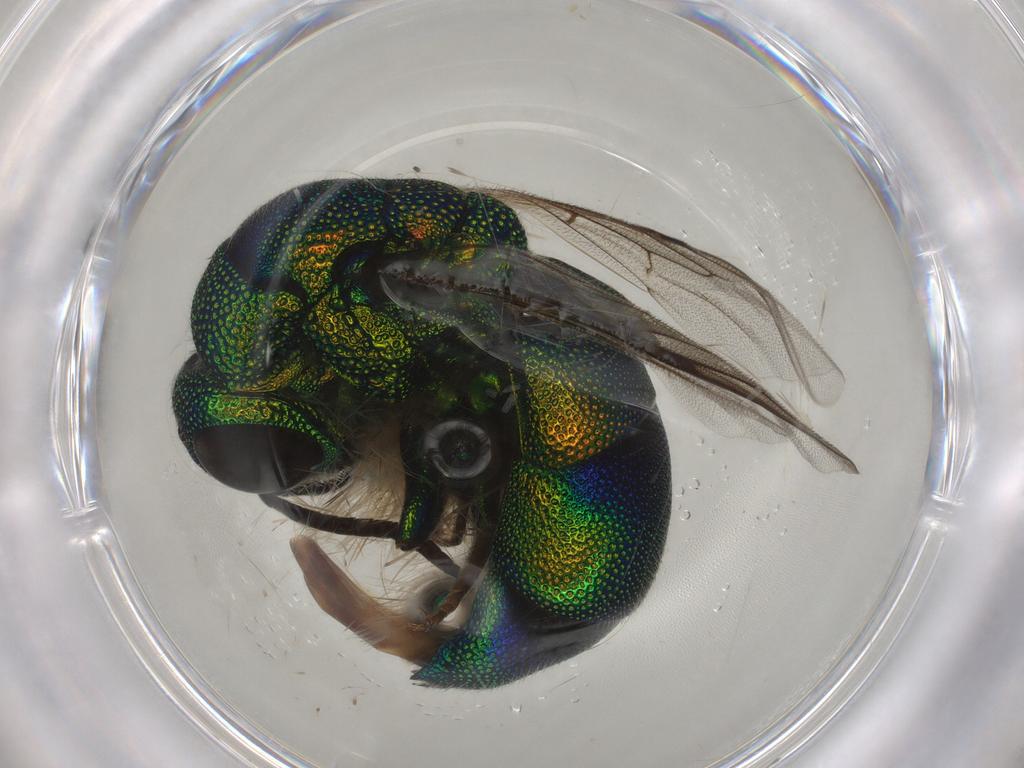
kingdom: Animalia
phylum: Arthropoda
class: Insecta
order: Hymenoptera
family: Chrysididae
